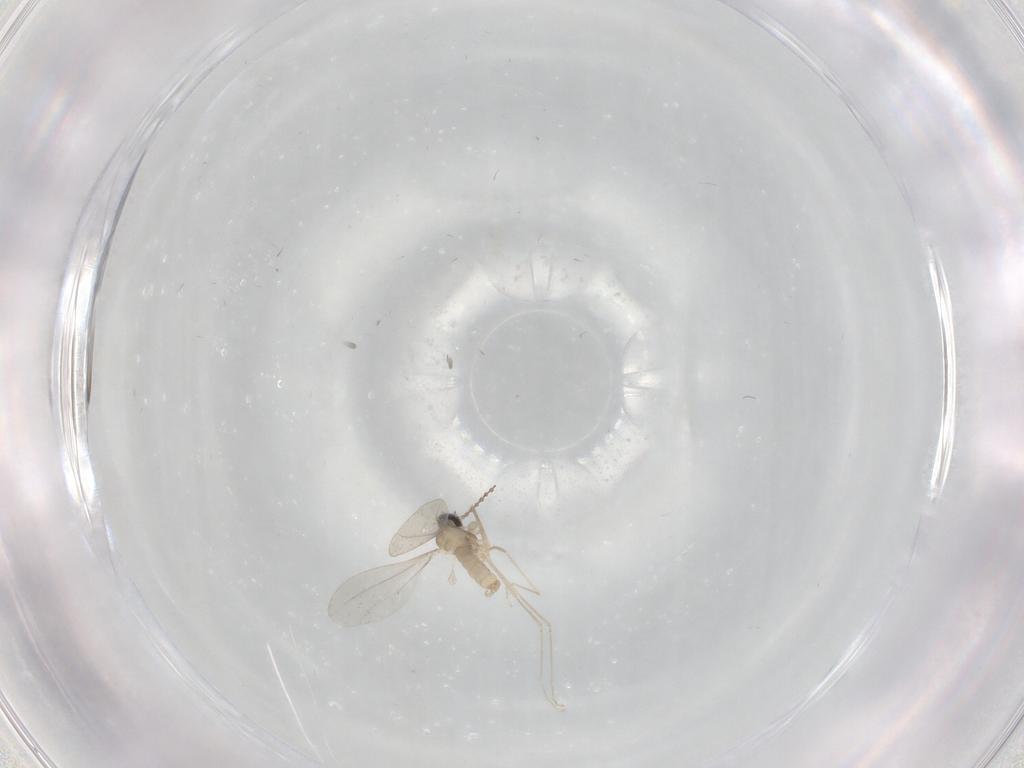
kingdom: Animalia
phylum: Arthropoda
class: Insecta
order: Diptera
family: Cecidomyiidae
